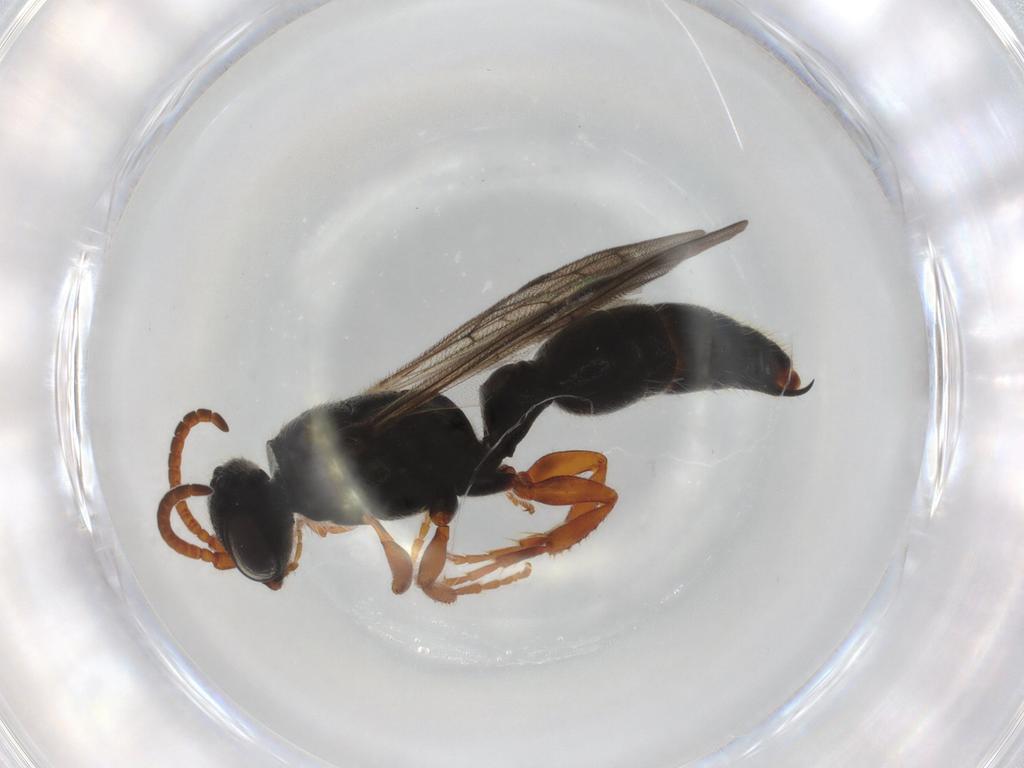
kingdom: Animalia
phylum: Arthropoda
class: Insecta
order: Hymenoptera
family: Tiphiidae
